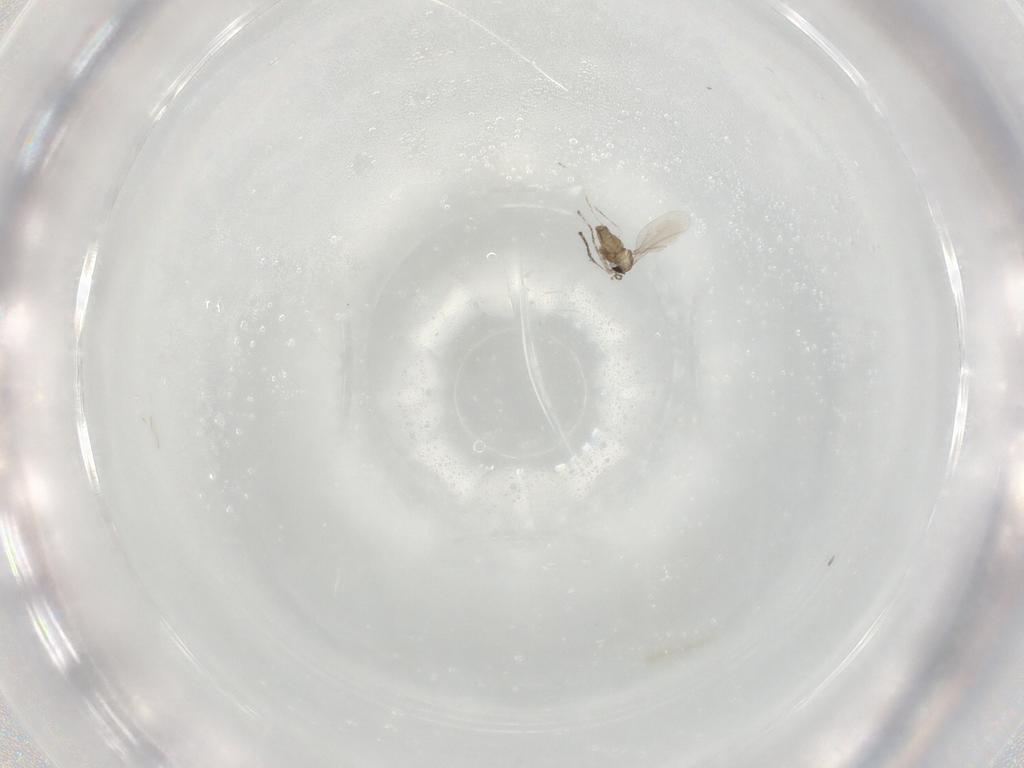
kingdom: Animalia
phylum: Arthropoda
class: Insecta
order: Diptera
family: Cecidomyiidae
